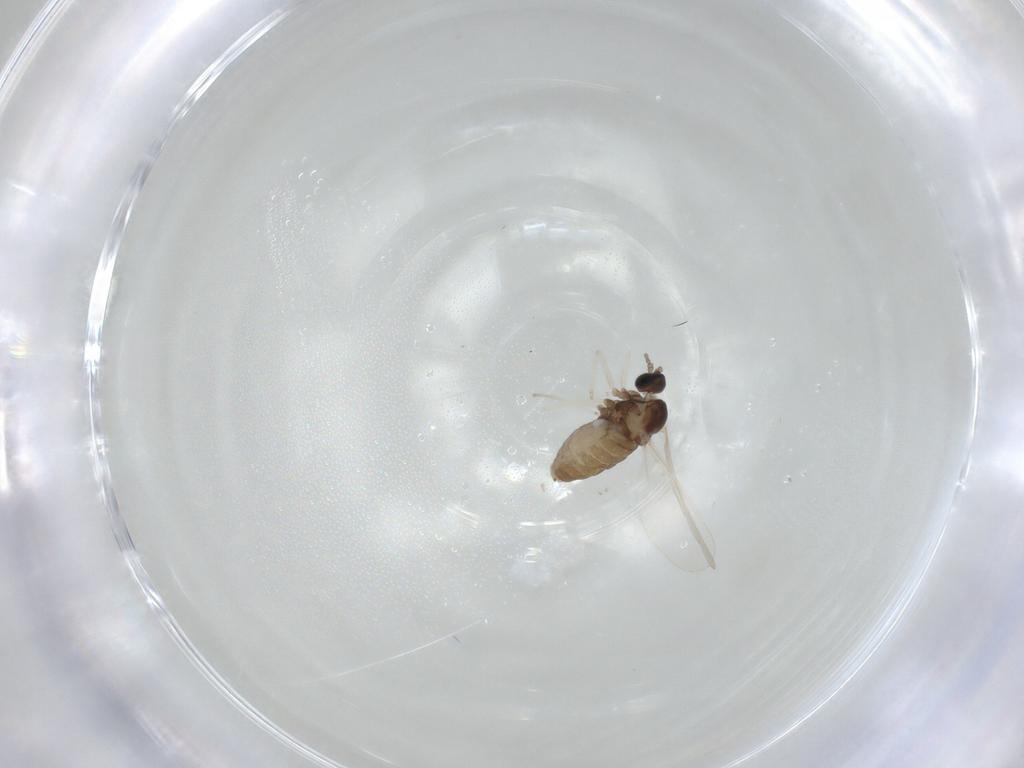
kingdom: Animalia
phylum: Arthropoda
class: Insecta
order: Diptera
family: Cecidomyiidae
